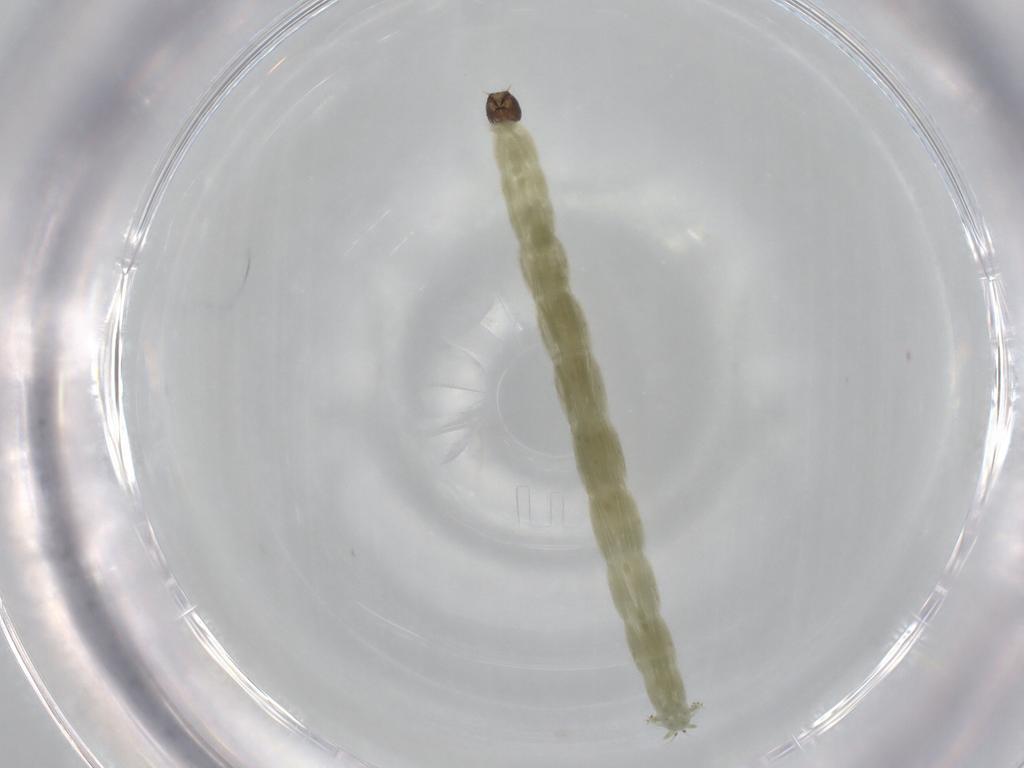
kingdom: Animalia
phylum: Arthropoda
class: Insecta
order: Diptera
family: Chironomidae
